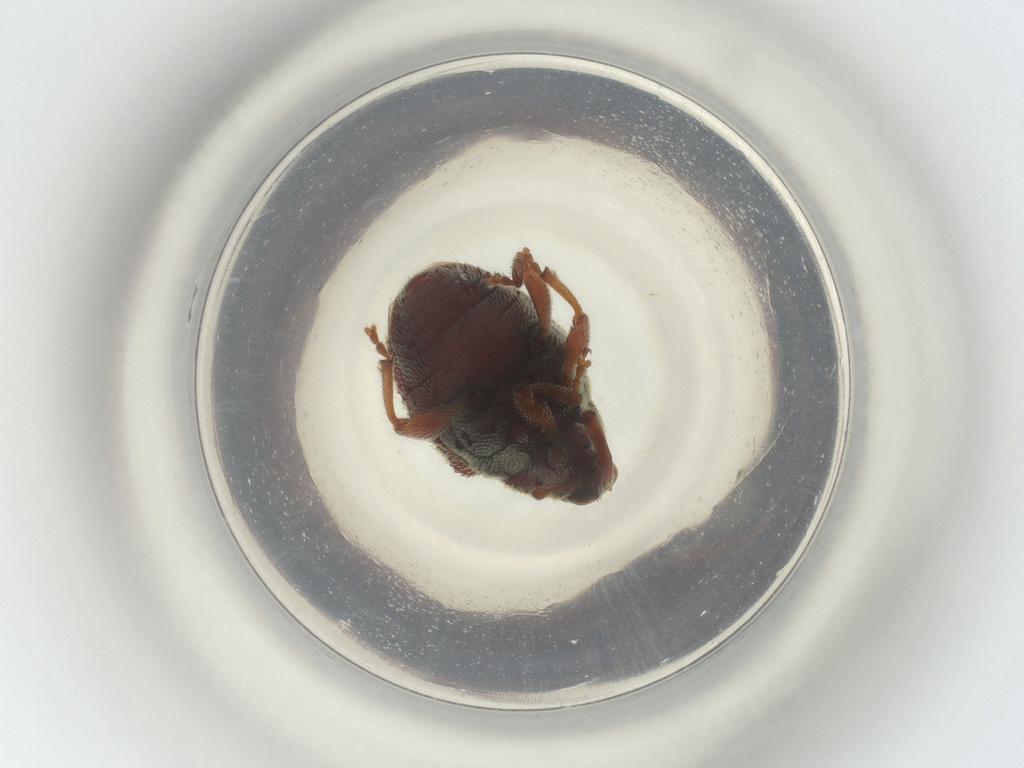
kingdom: Animalia
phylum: Arthropoda
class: Insecta
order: Coleoptera
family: Curculionidae
